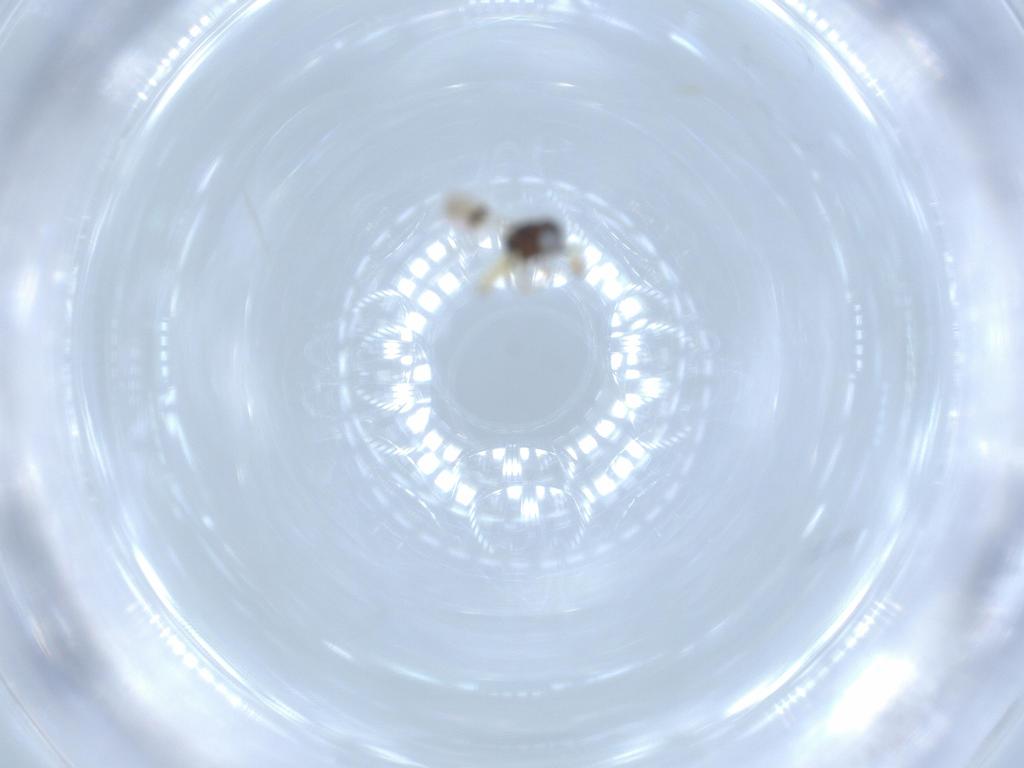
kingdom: Animalia
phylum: Arthropoda
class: Insecta
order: Hymenoptera
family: Scelionidae
